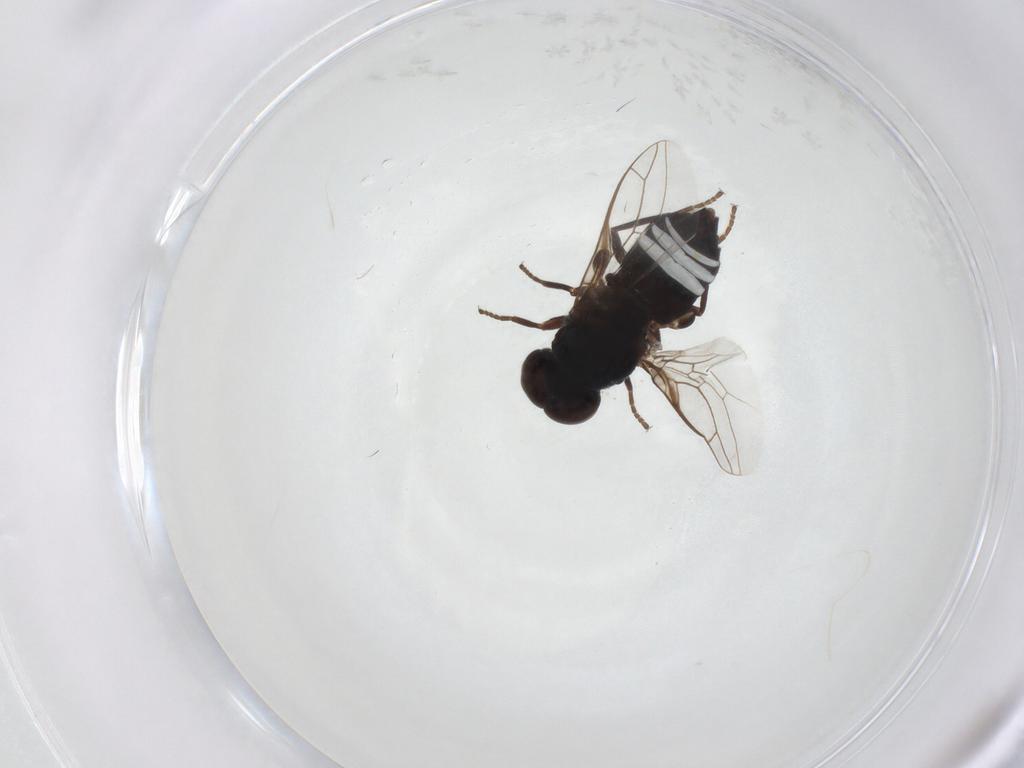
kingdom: Animalia
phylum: Arthropoda
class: Insecta
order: Diptera
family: Scenopinidae
